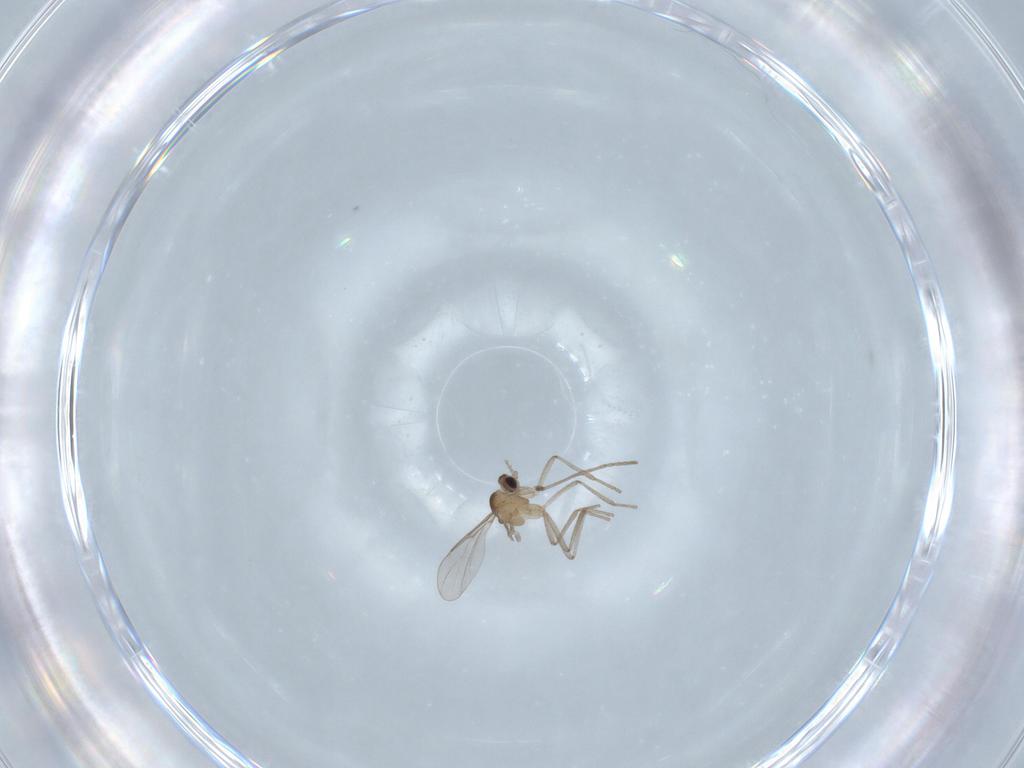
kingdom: Animalia
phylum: Arthropoda
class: Insecta
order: Diptera
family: Cecidomyiidae
